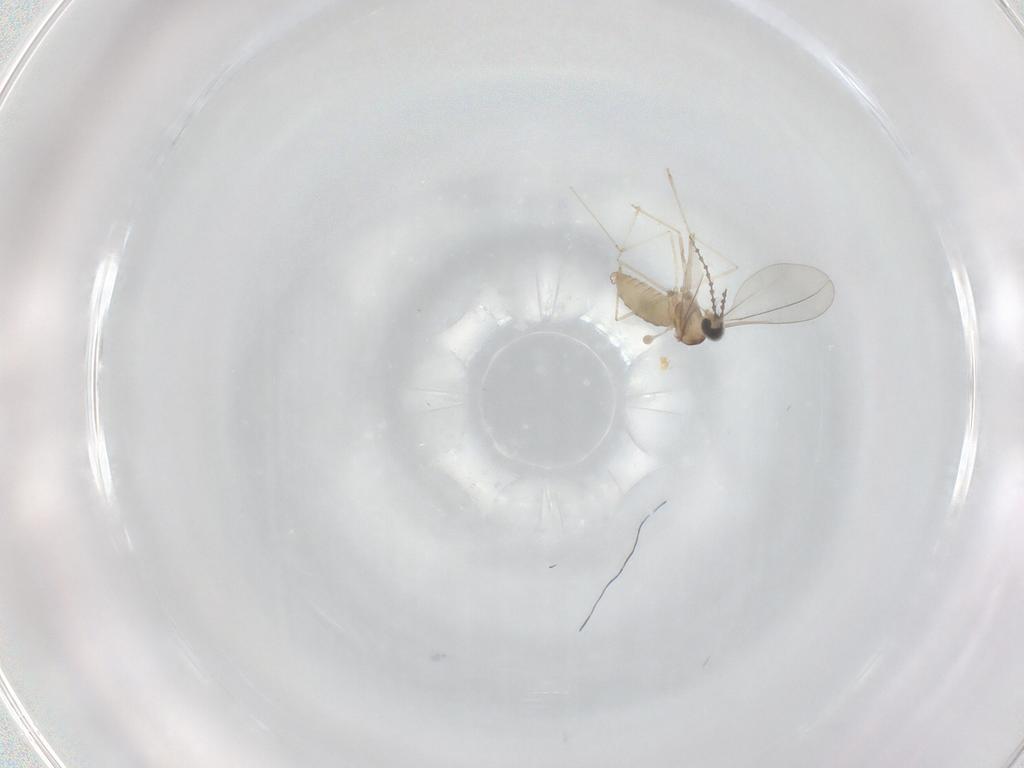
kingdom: Animalia
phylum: Arthropoda
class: Insecta
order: Diptera
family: Cecidomyiidae
